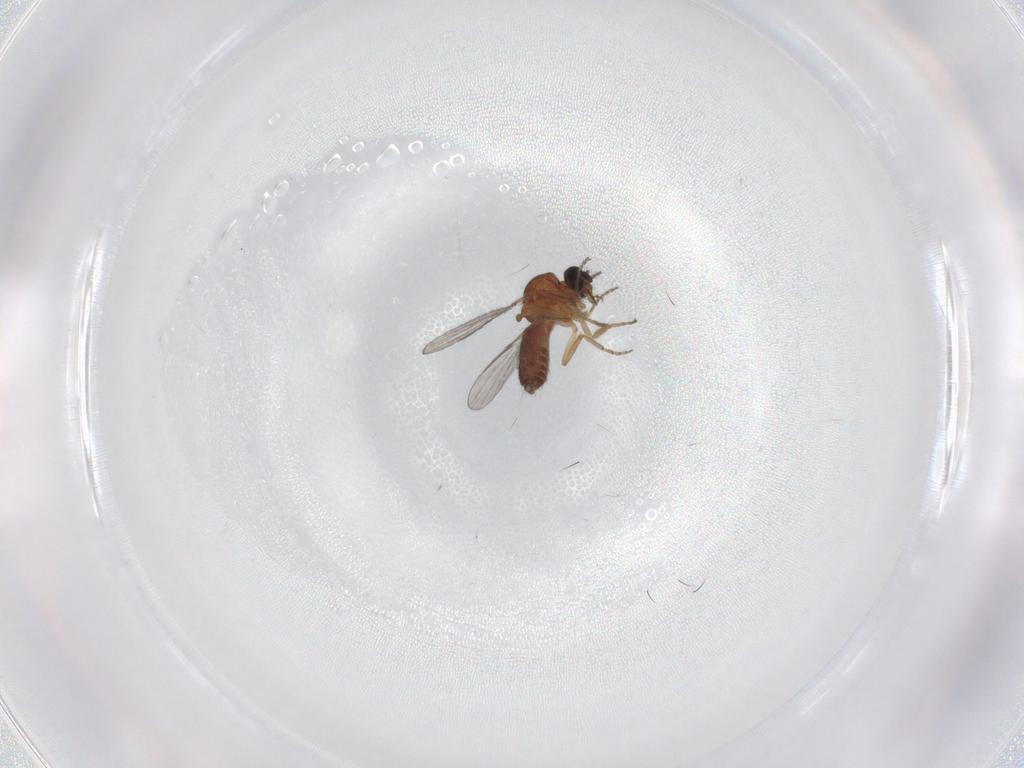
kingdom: Animalia
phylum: Arthropoda
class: Insecta
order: Diptera
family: Ceratopogonidae
